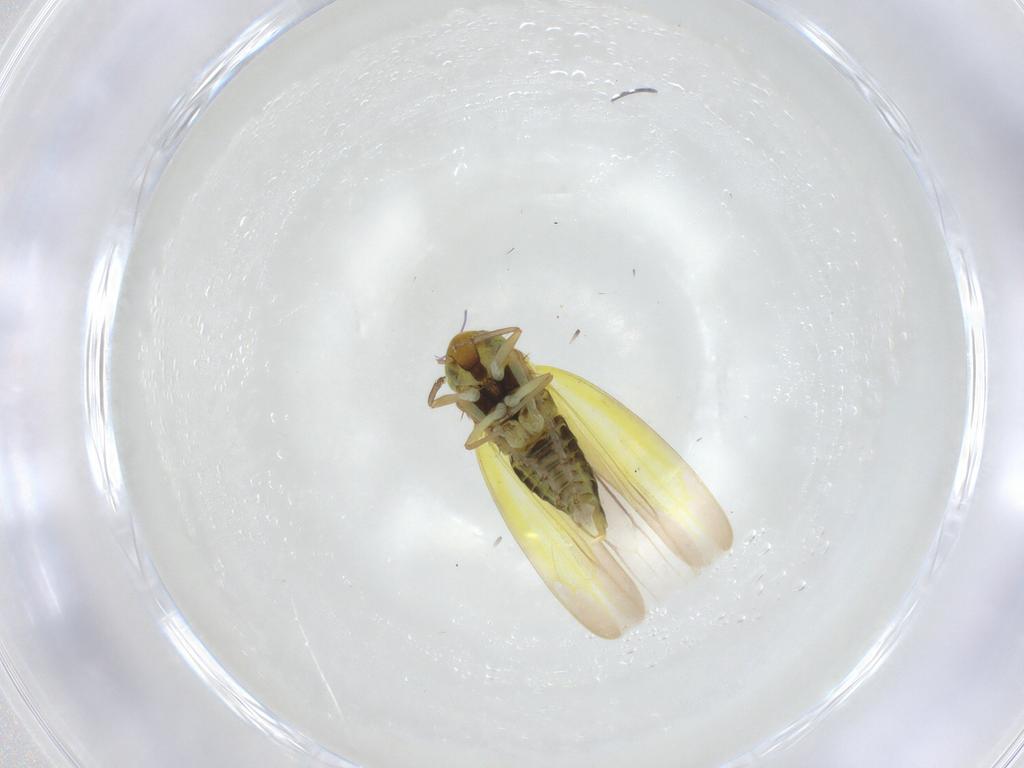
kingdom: Animalia
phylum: Arthropoda
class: Insecta
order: Hemiptera
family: Cicadellidae
